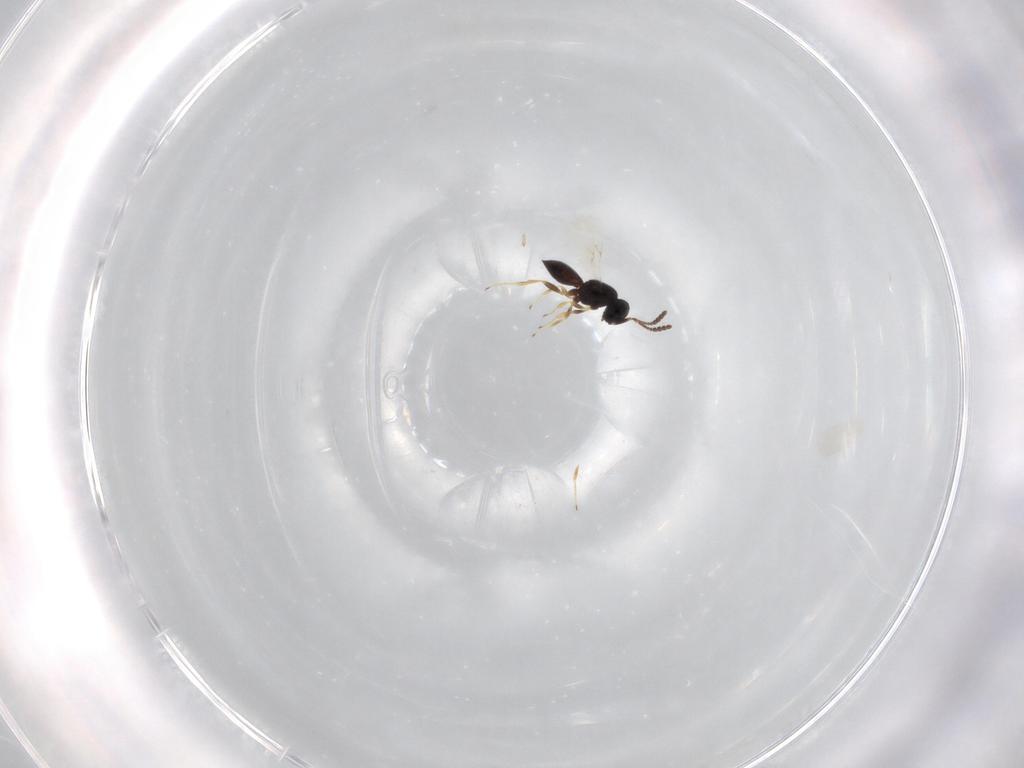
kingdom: Animalia
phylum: Arthropoda
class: Insecta
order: Hymenoptera
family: Scelionidae
